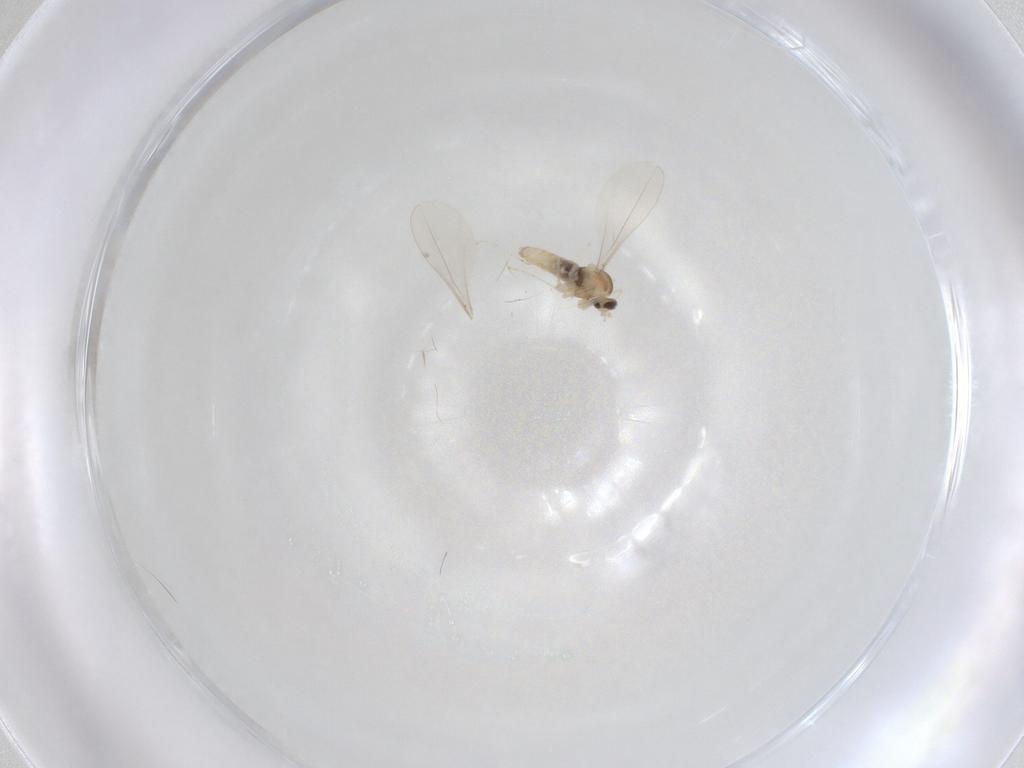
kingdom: Animalia
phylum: Arthropoda
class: Insecta
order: Diptera
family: Cecidomyiidae
